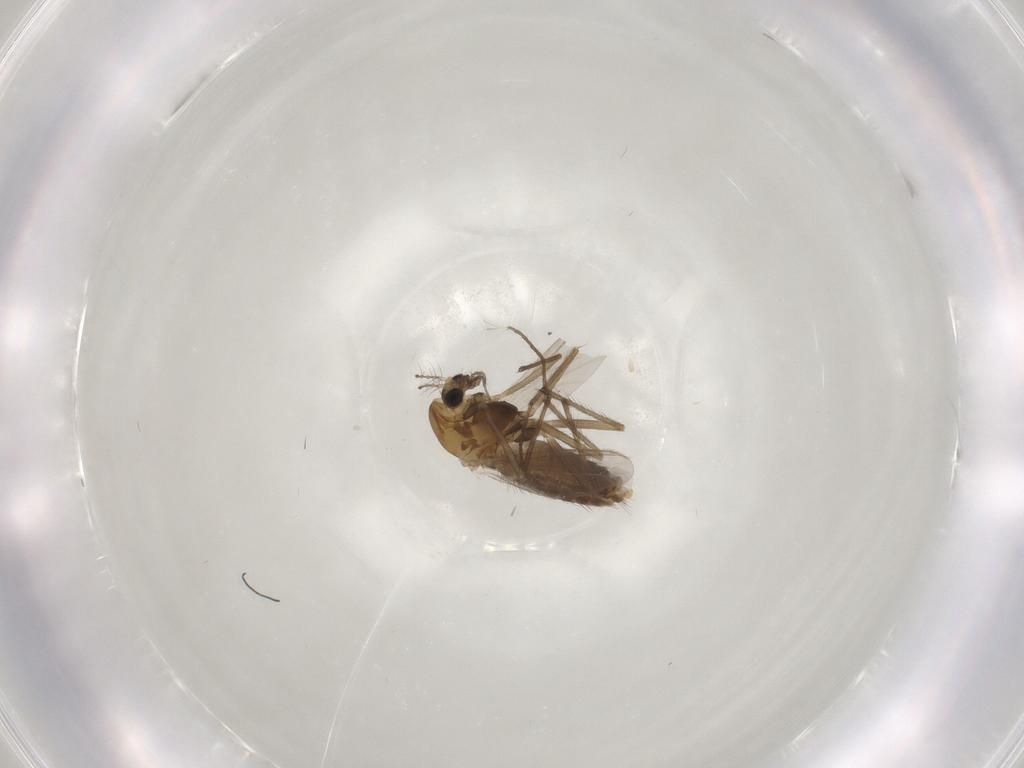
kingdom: Animalia
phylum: Arthropoda
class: Insecta
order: Diptera
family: Chironomidae
